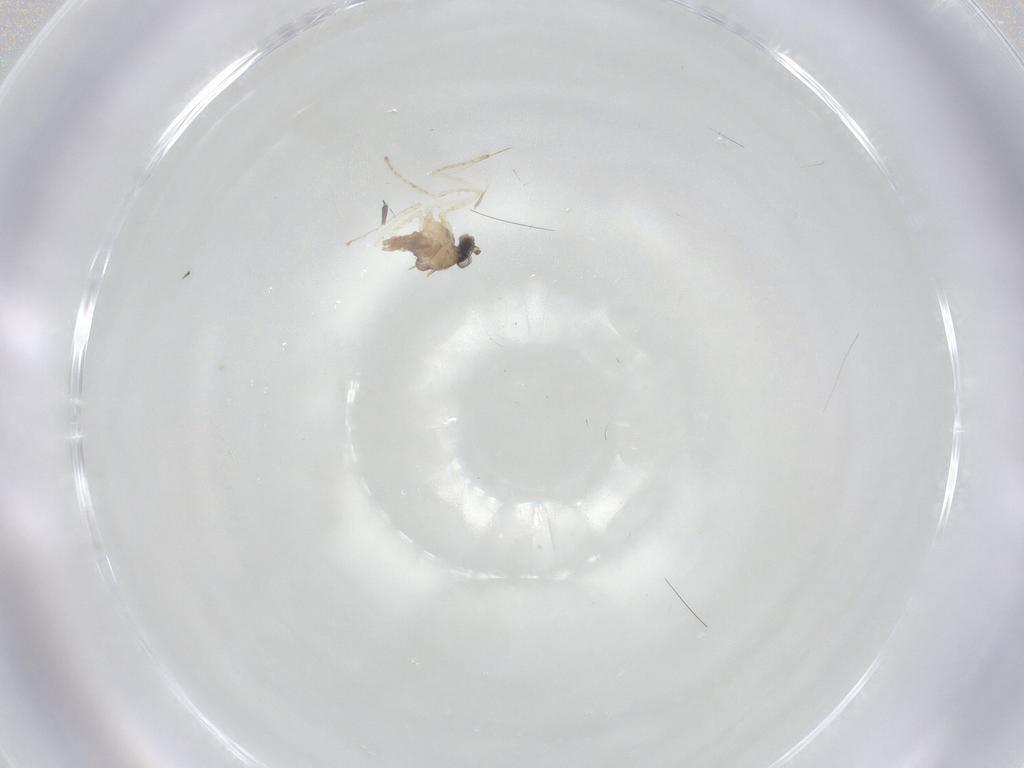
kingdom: Animalia
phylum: Arthropoda
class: Insecta
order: Diptera
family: Cecidomyiidae
